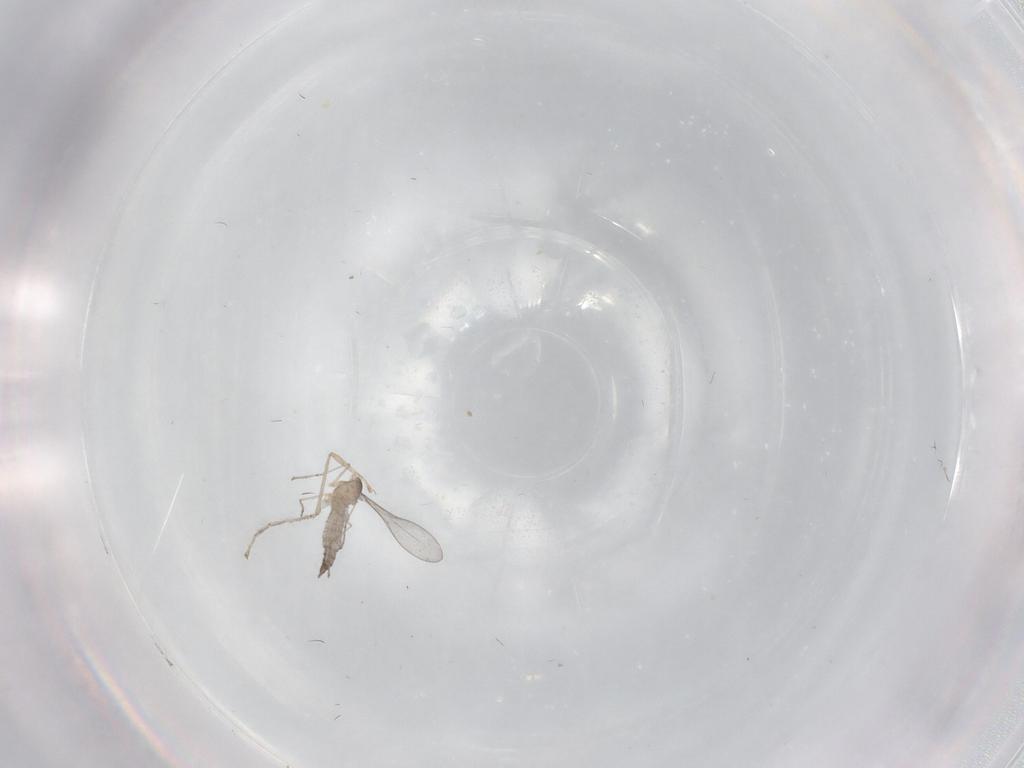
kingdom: Animalia
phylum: Arthropoda
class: Insecta
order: Diptera
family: Cecidomyiidae
